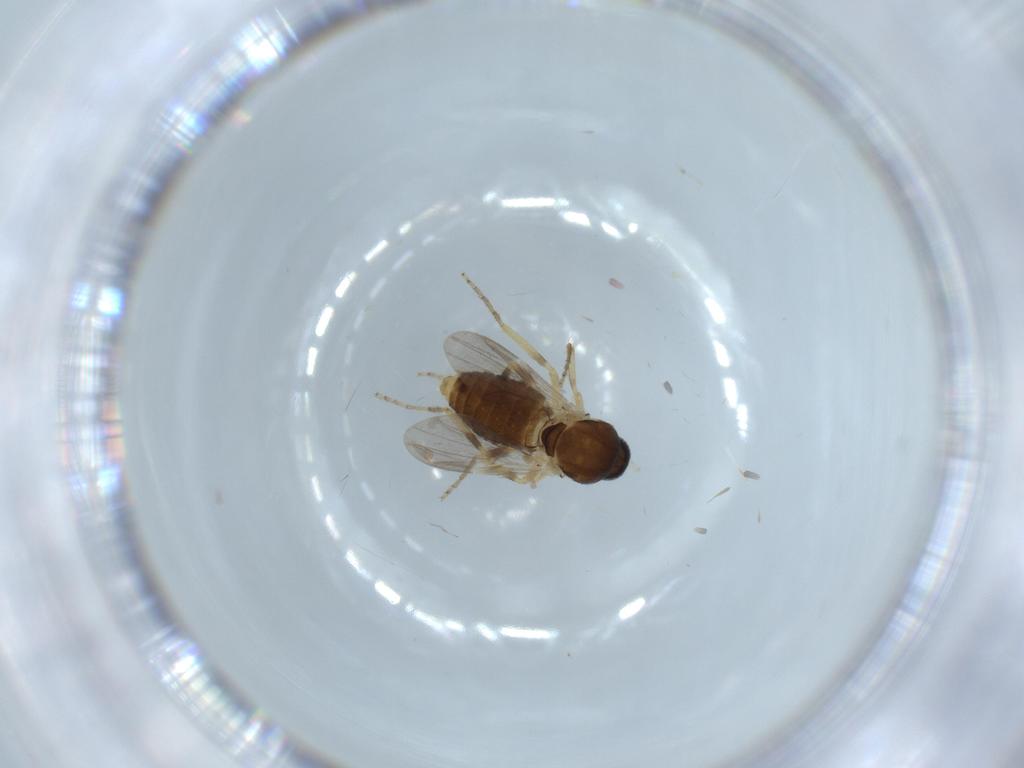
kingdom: Animalia
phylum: Arthropoda
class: Insecta
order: Diptera
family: Ceratopogonidae
